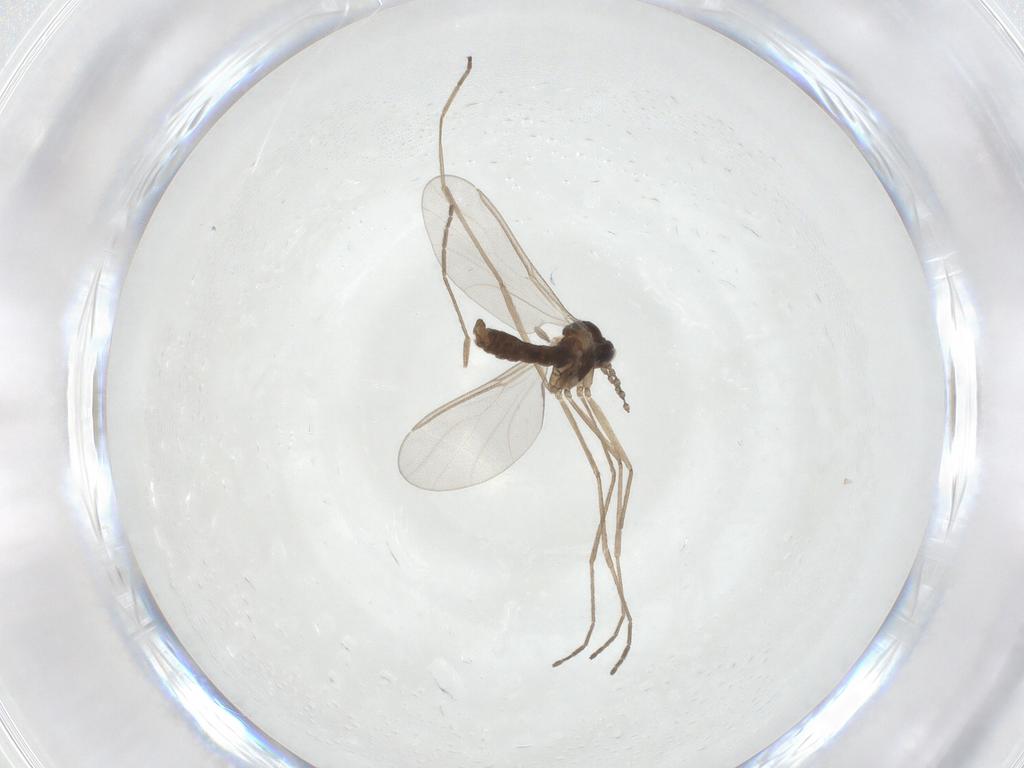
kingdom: Animalia
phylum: Arthropoda
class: Insecta
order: Diptera
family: Cecidomyiidae
